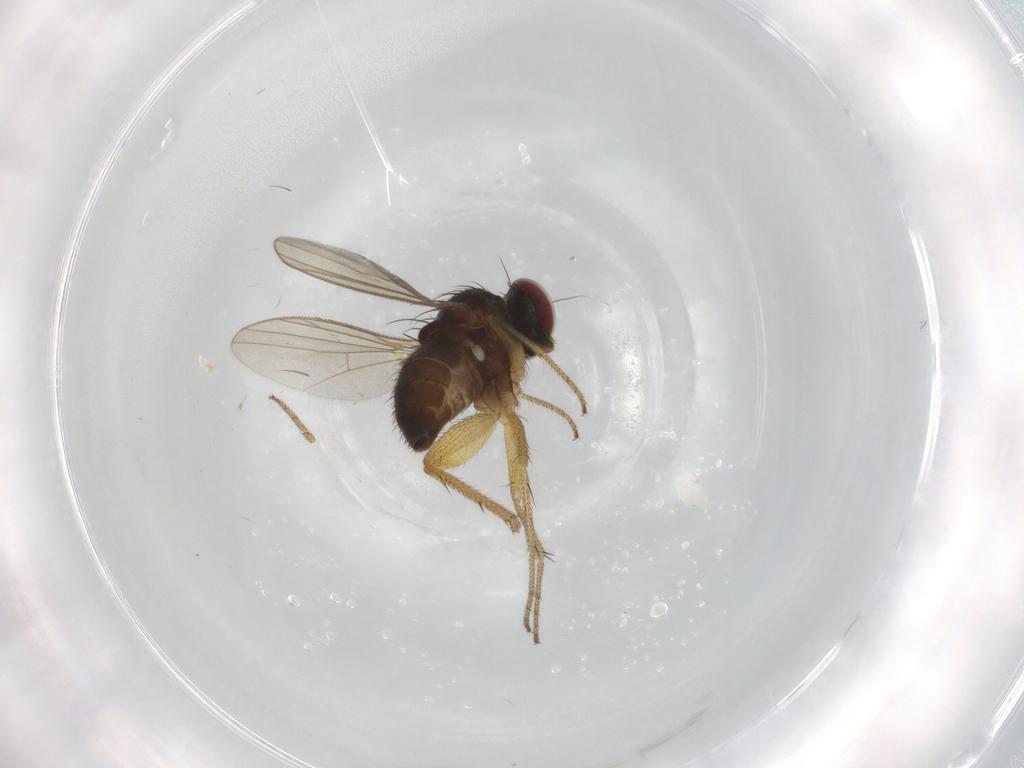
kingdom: Animalia
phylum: Arthropoda
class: Insecta
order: Diptera
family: Dolichopodidae
